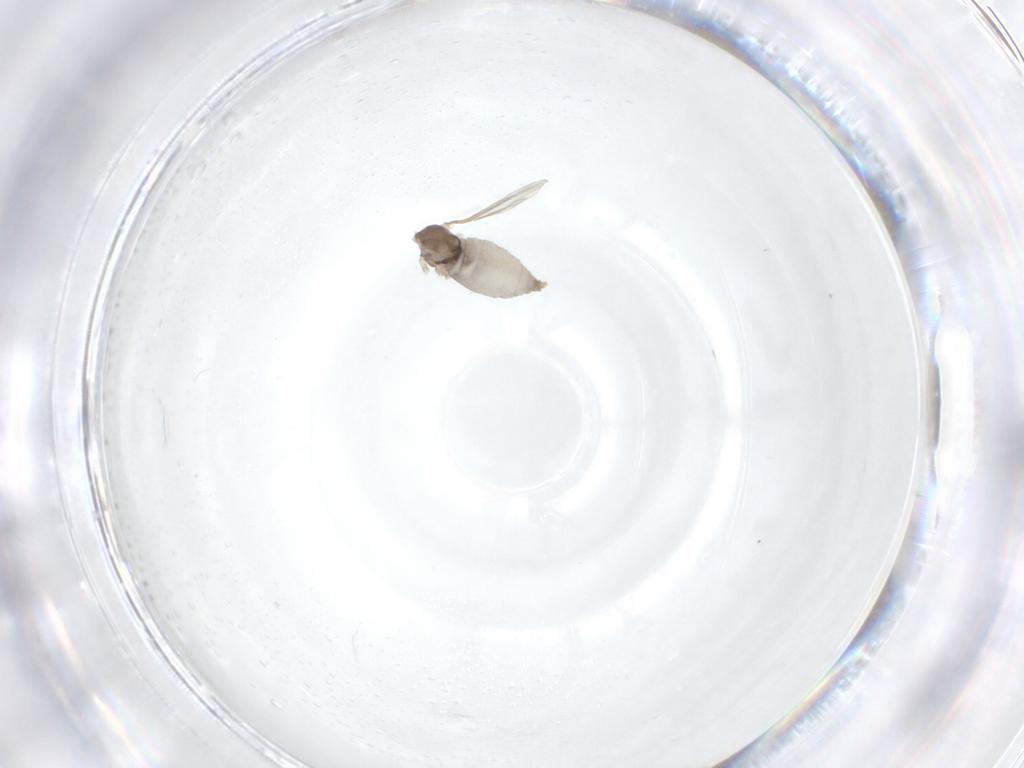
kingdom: Animalia
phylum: Arthropoda
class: Insecta
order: Diptera
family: Cecidomyiidae
